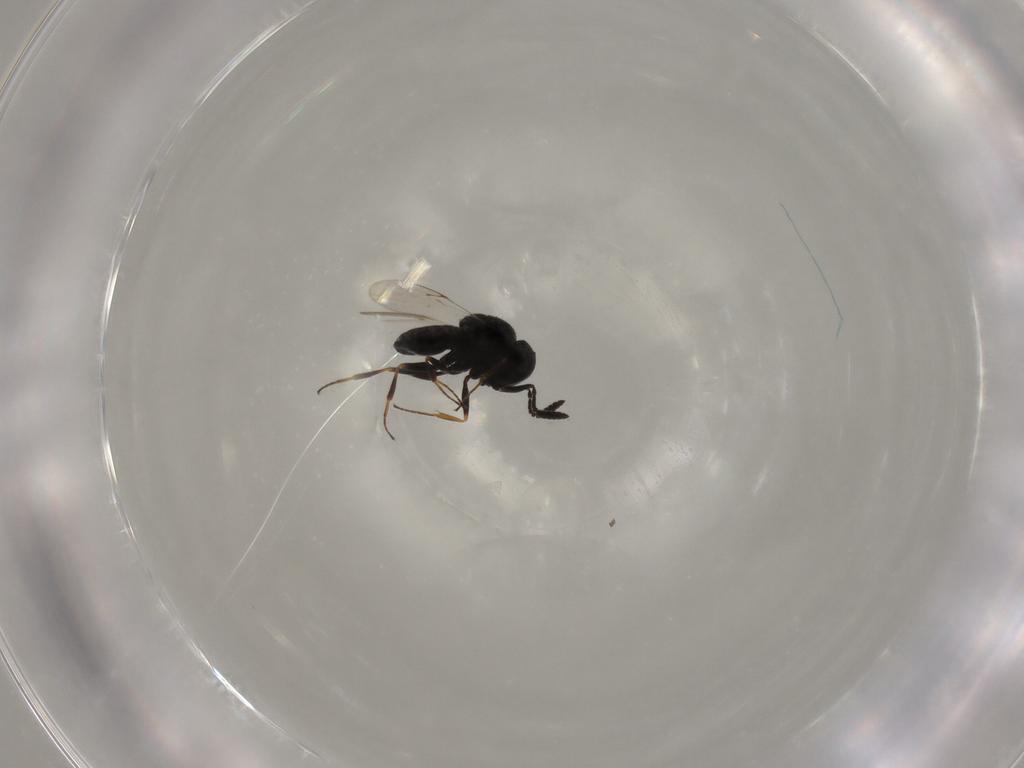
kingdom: Animalia
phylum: Arthropoda
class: Insecta
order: Hymenoptera
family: Scelionidae
